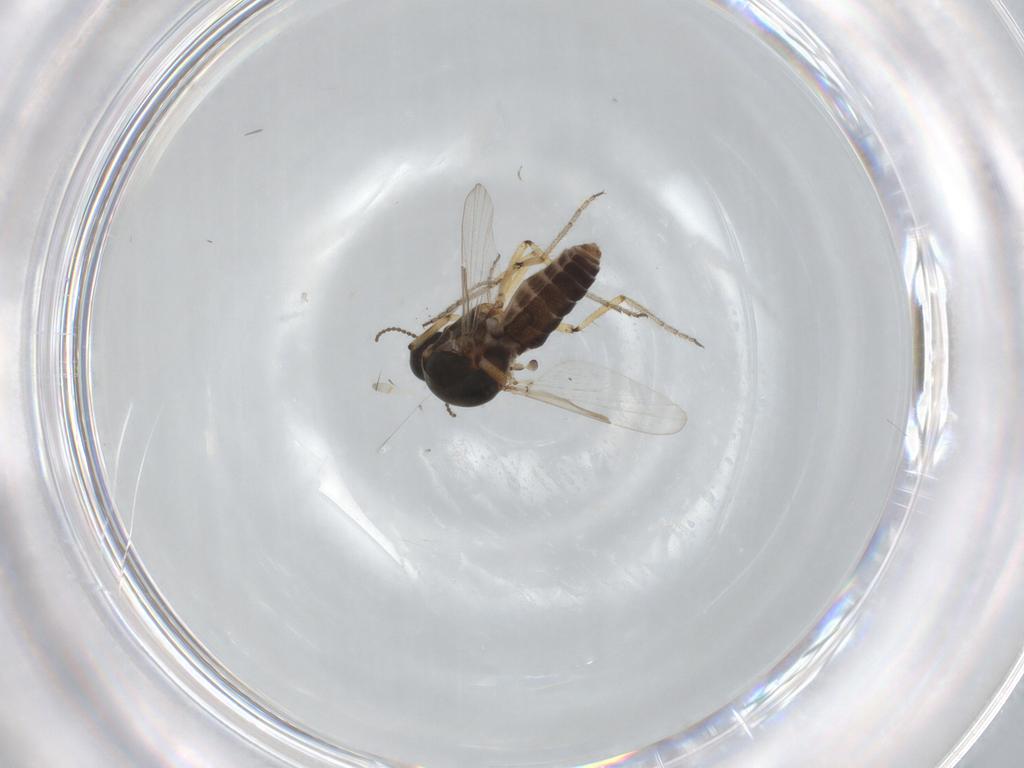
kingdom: Animalia
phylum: Arthropoda
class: Insecta
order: Diptera
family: Ceratopogonidae
